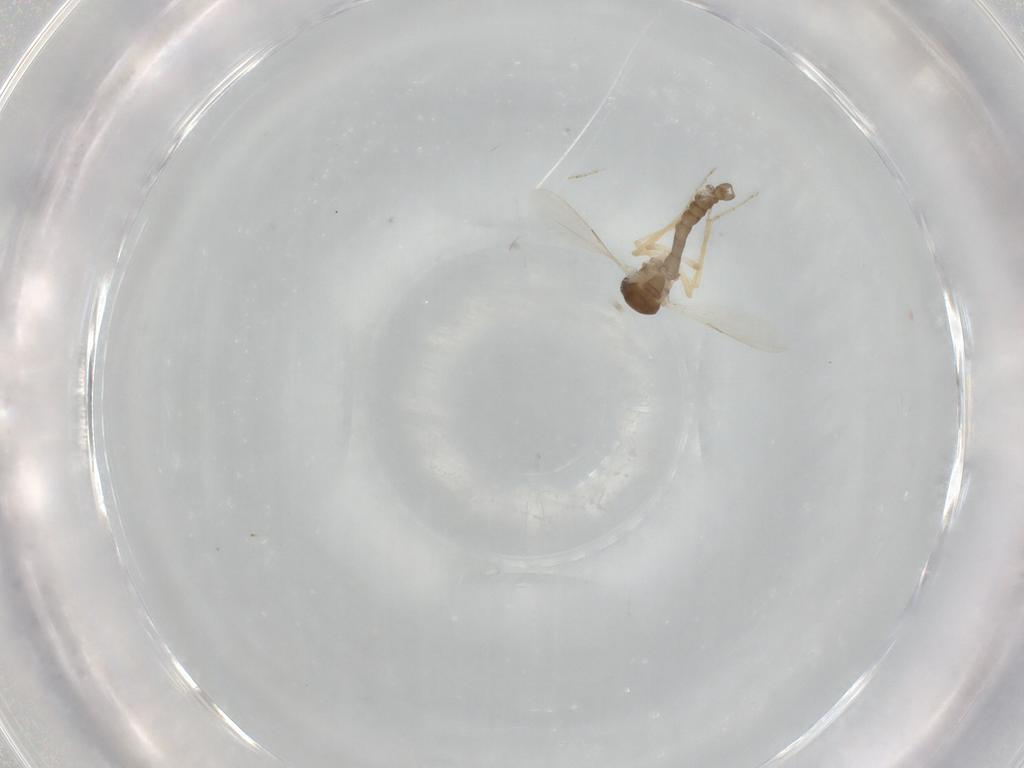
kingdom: Animalia
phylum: Arthropoda
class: Insecta
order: Diptera
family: Ceratopogonidae
